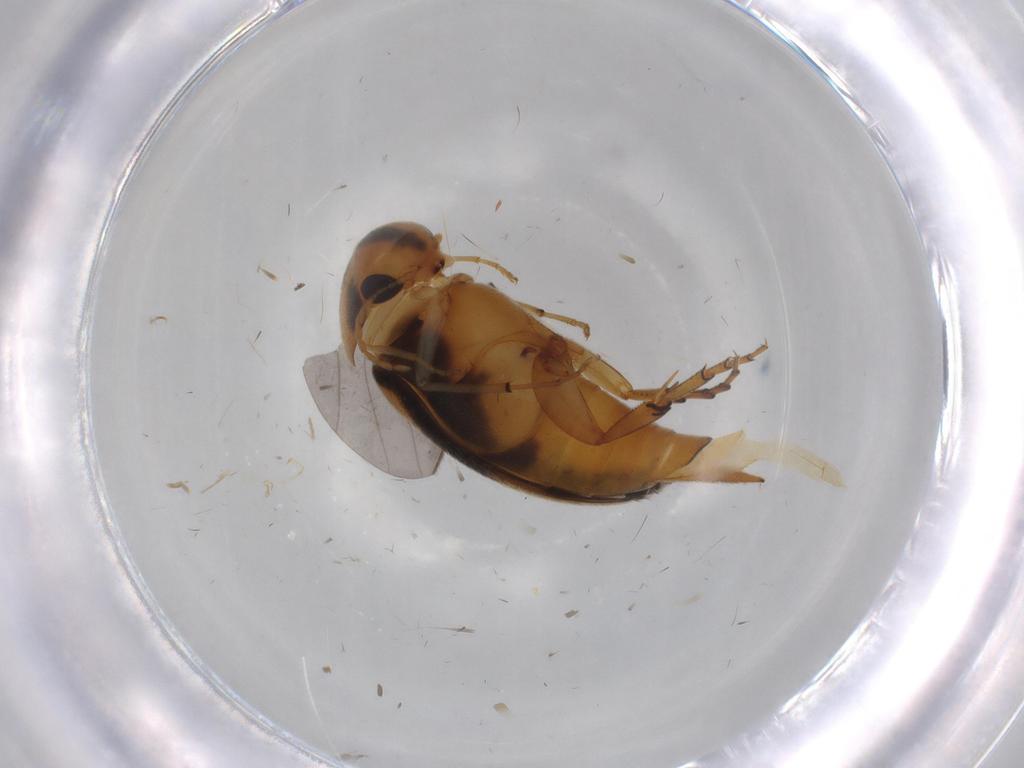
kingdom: Animalia
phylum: Arthropoda
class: Insecta
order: Coleoptera
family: Mordellidae
